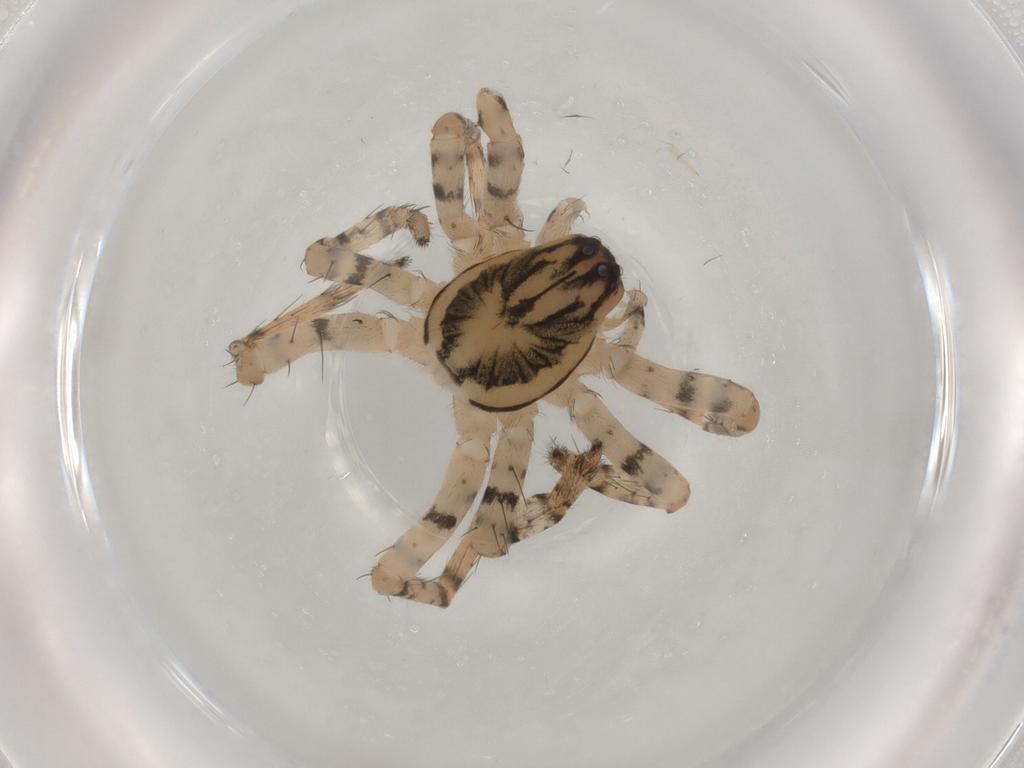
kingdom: Animalia
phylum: Arthropoda
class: Arachnida
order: Araneae
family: Anyphaenidae
